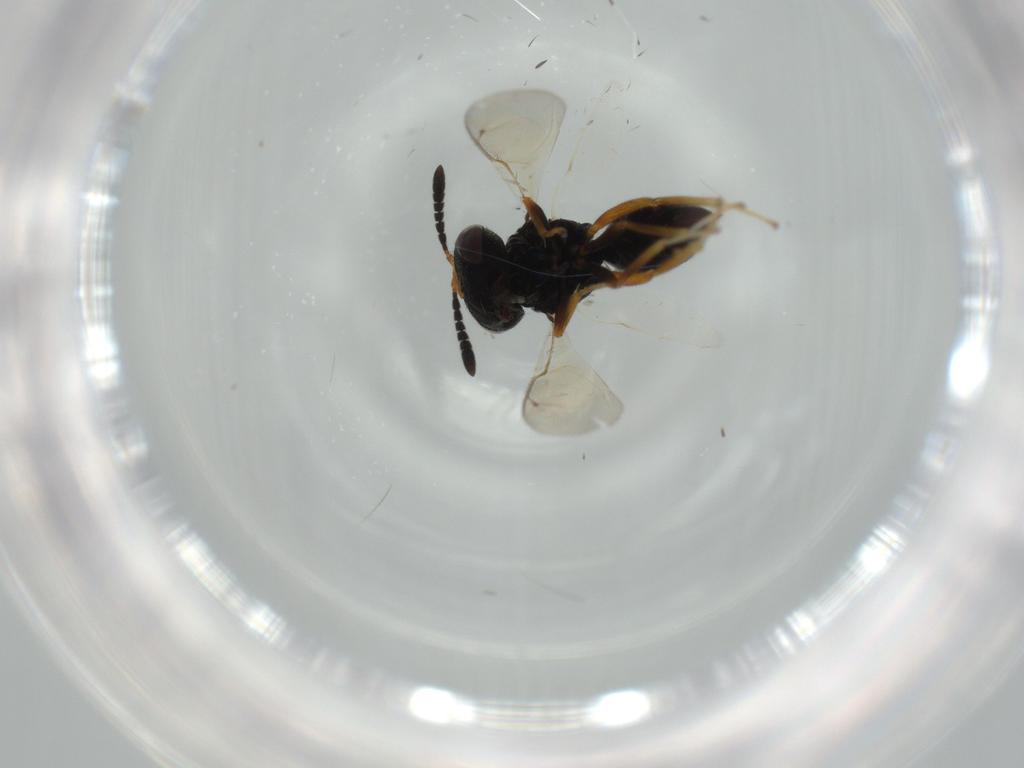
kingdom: Animalia
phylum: Arthropoda
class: Insecta
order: Hymenoptera
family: Pteromalidae
